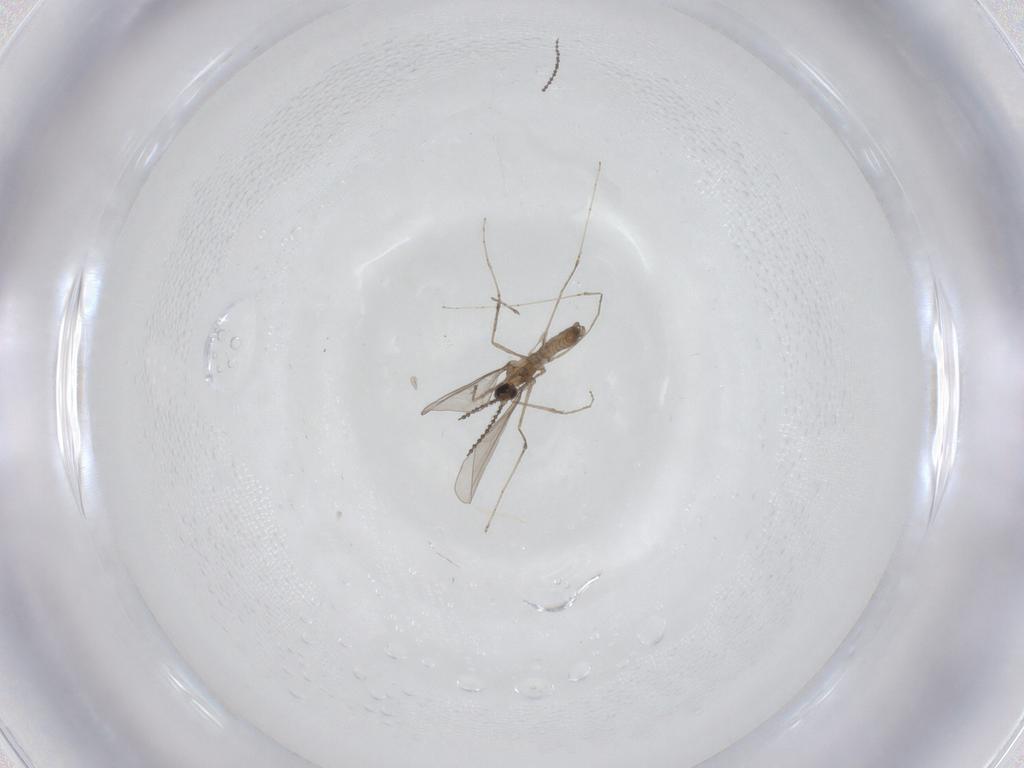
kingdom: Animalia
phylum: Arthropoda
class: Insecta
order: Diptera
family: Cecidomyiidae
